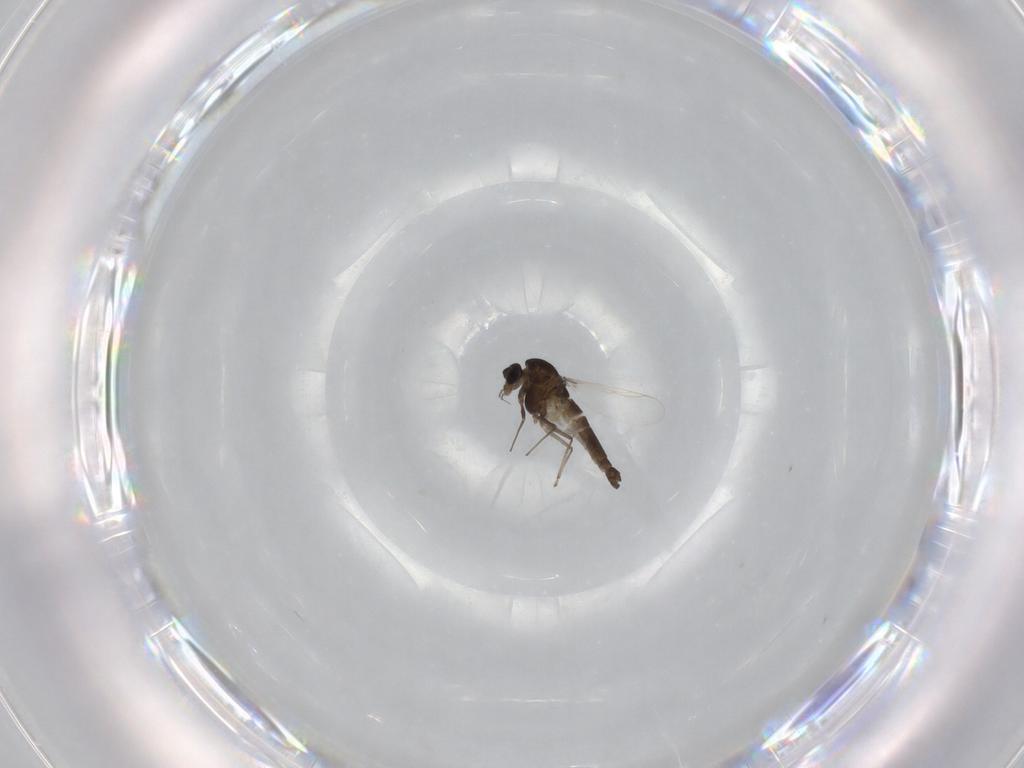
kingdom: Animalia
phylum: Arthropoda
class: Insecta
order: Diptera
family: Chironomidae
